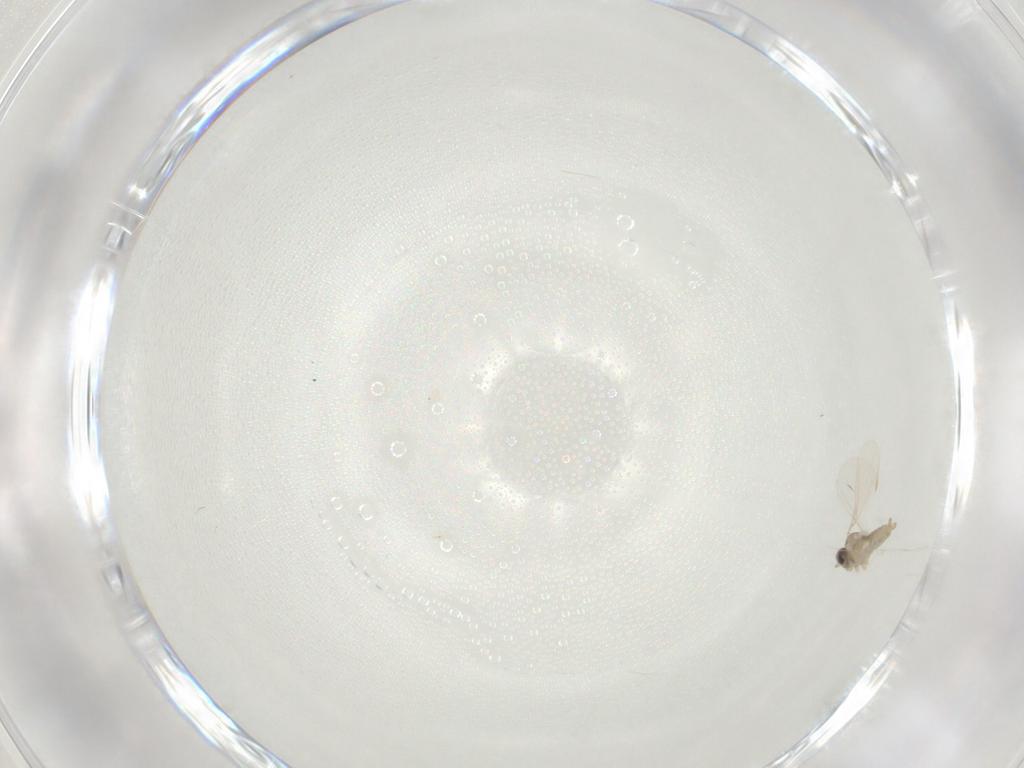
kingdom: Animalia
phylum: Arthropoda
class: Insecta
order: Diptera
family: Cecidomyiidae
